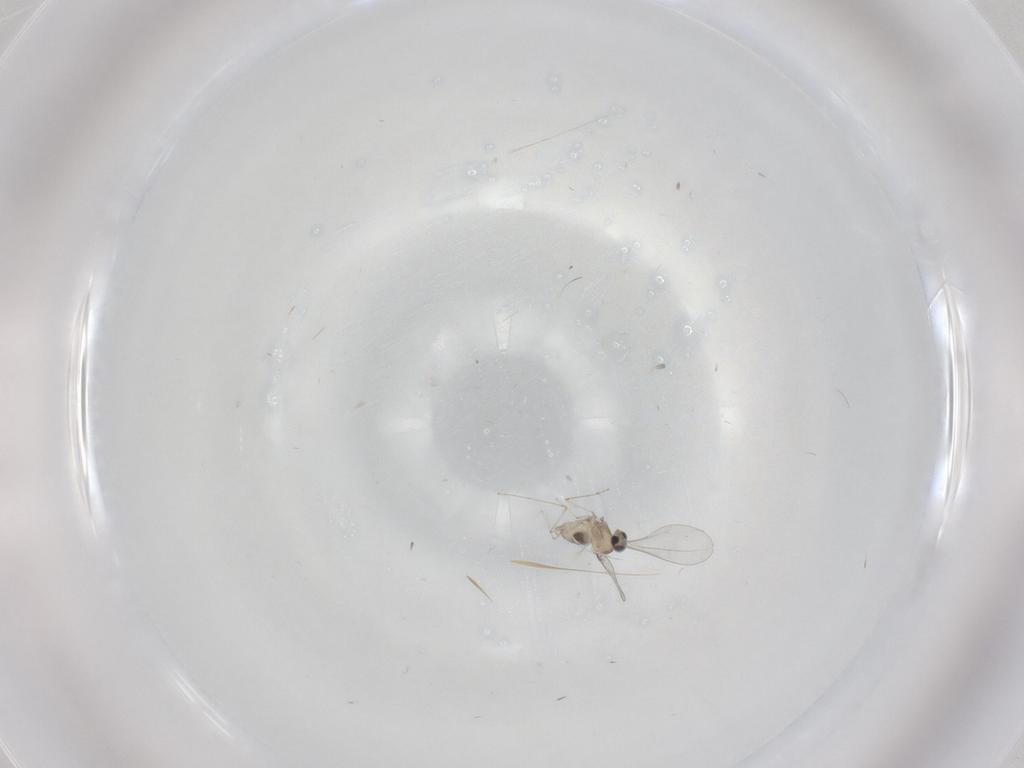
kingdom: Animalia
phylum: Arthropoda
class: Insecta
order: Diptera
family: Cecidomyiidae
